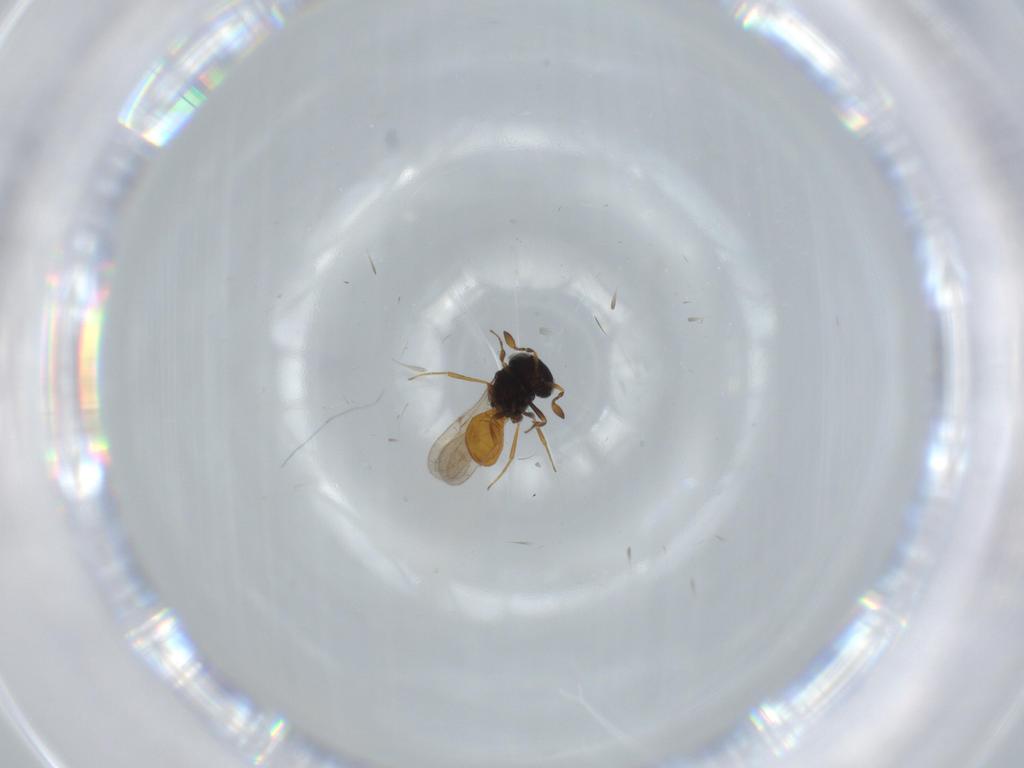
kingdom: Animalia
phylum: Arthropoda
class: Insecta
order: Hymenoptera
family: Scelionidae
